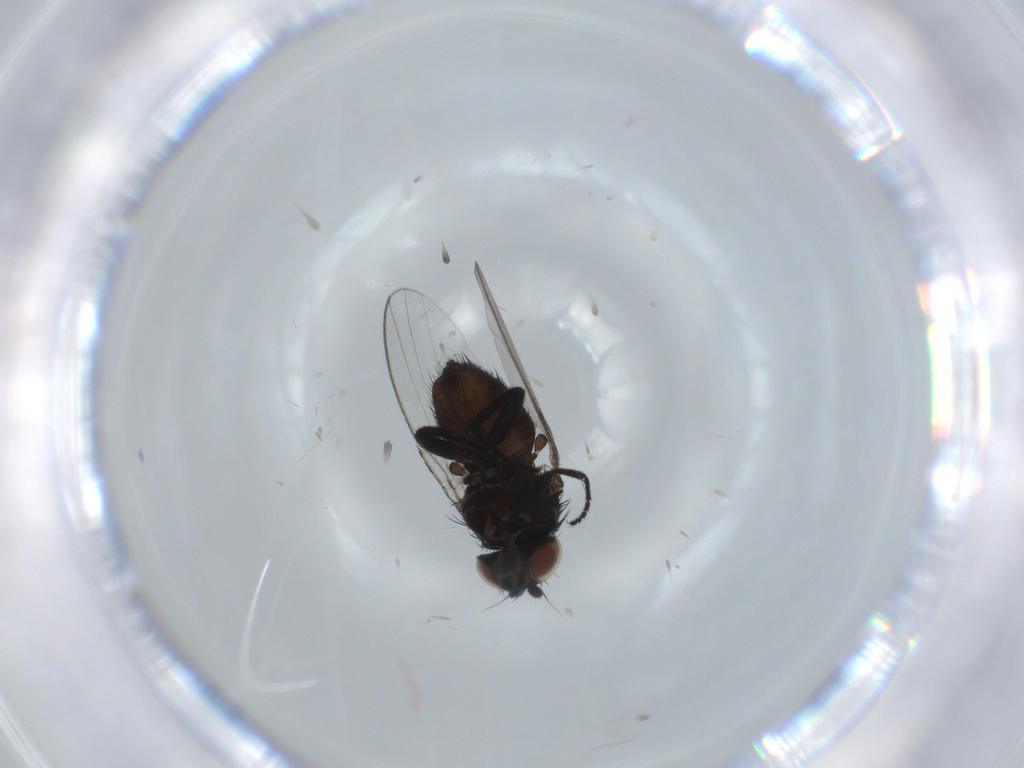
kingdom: Animalia
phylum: Arthropoda
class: Insecta
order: Diptera
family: Milichiidae
